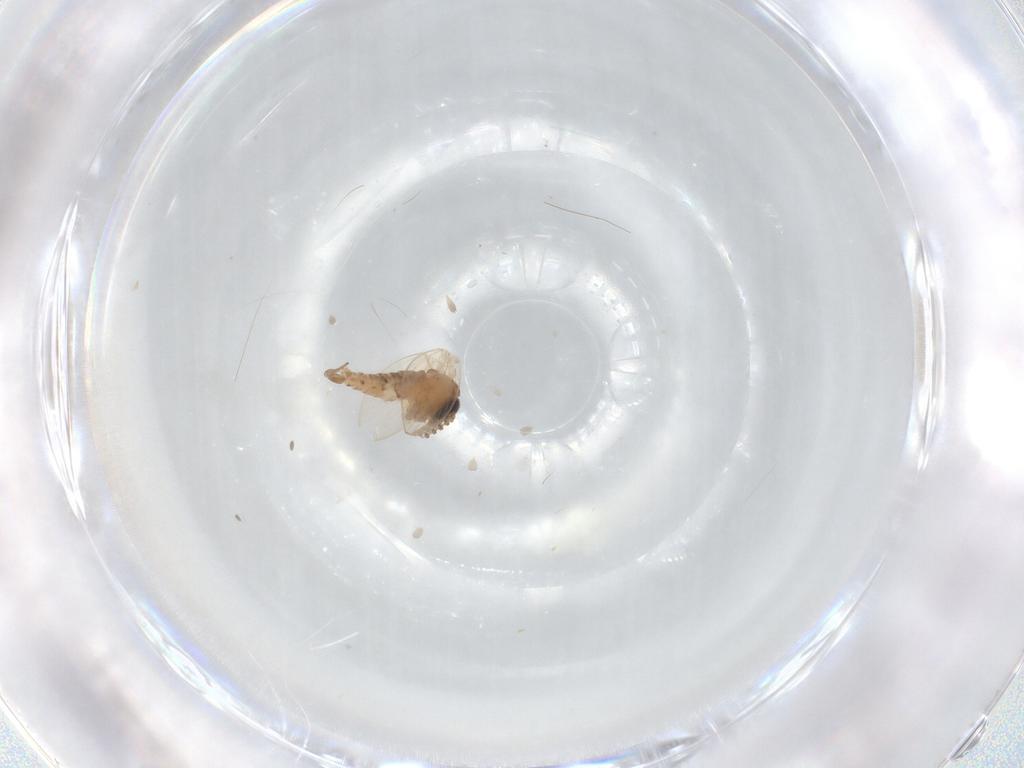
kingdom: Animalia
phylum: Arthropoda
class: Insecta
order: Diptera
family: Psychodidae
